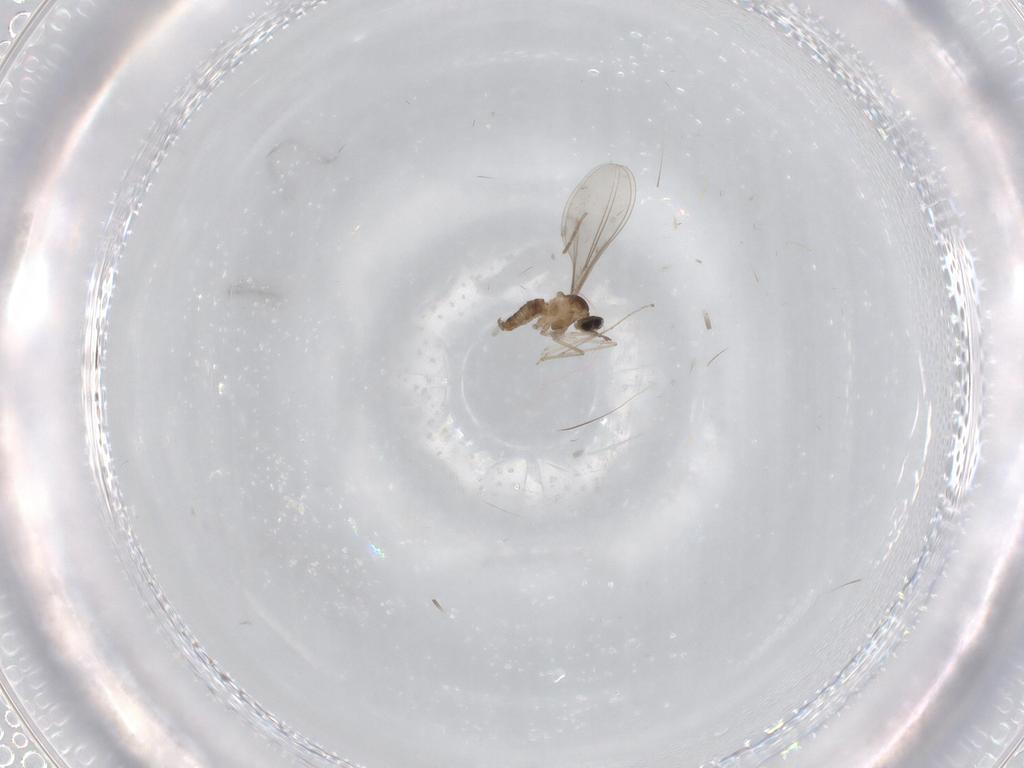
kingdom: Animalia
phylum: Arthropoda
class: Insecta
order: Diptera
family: Cecidomyiidae
